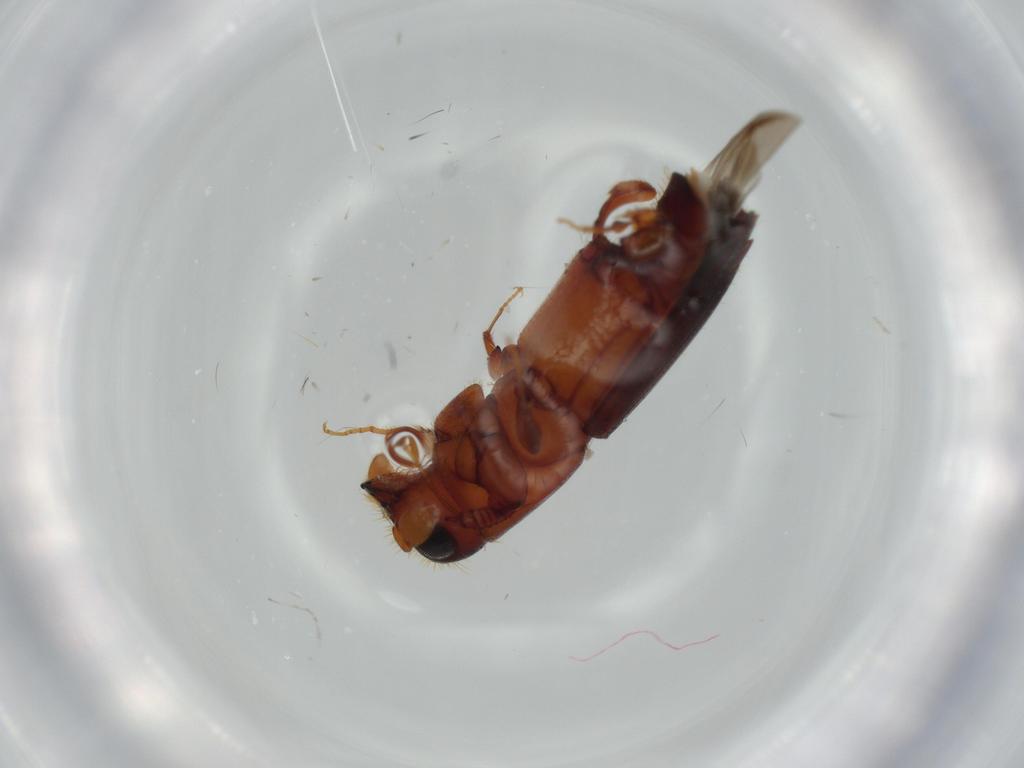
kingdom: Animalia
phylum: Arthropoda
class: Insecta
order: Coleoptera
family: Curculionidae
